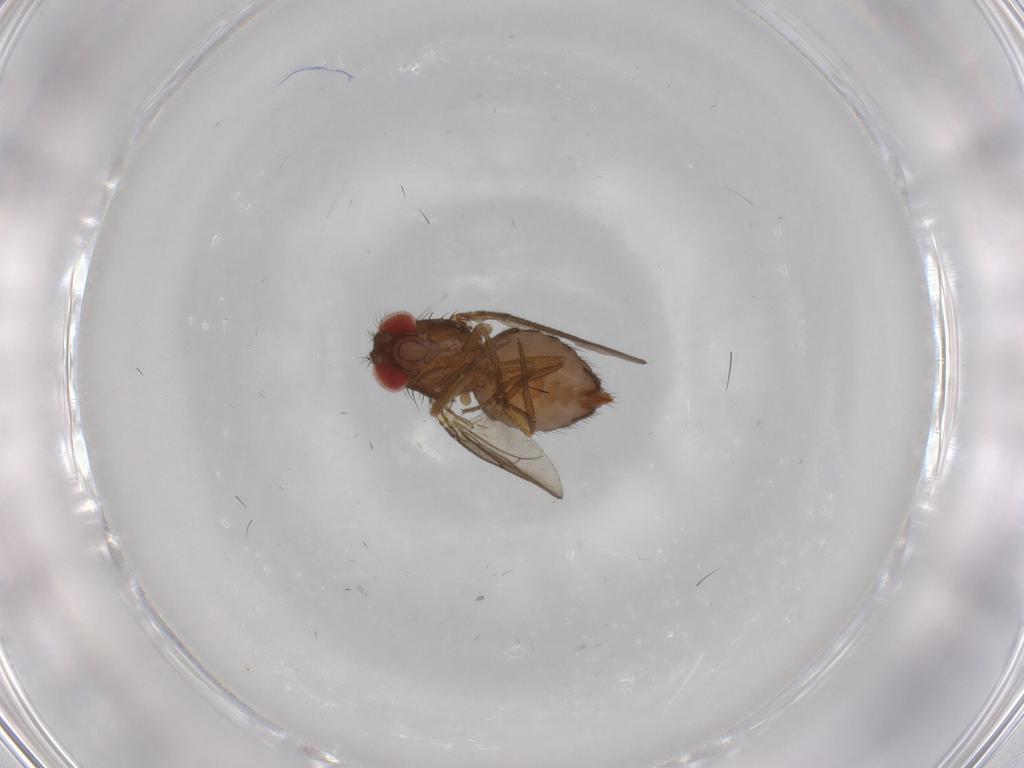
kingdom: Animalia
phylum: Arthropoda
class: Insecta
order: Diptera
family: Drosophilidae
